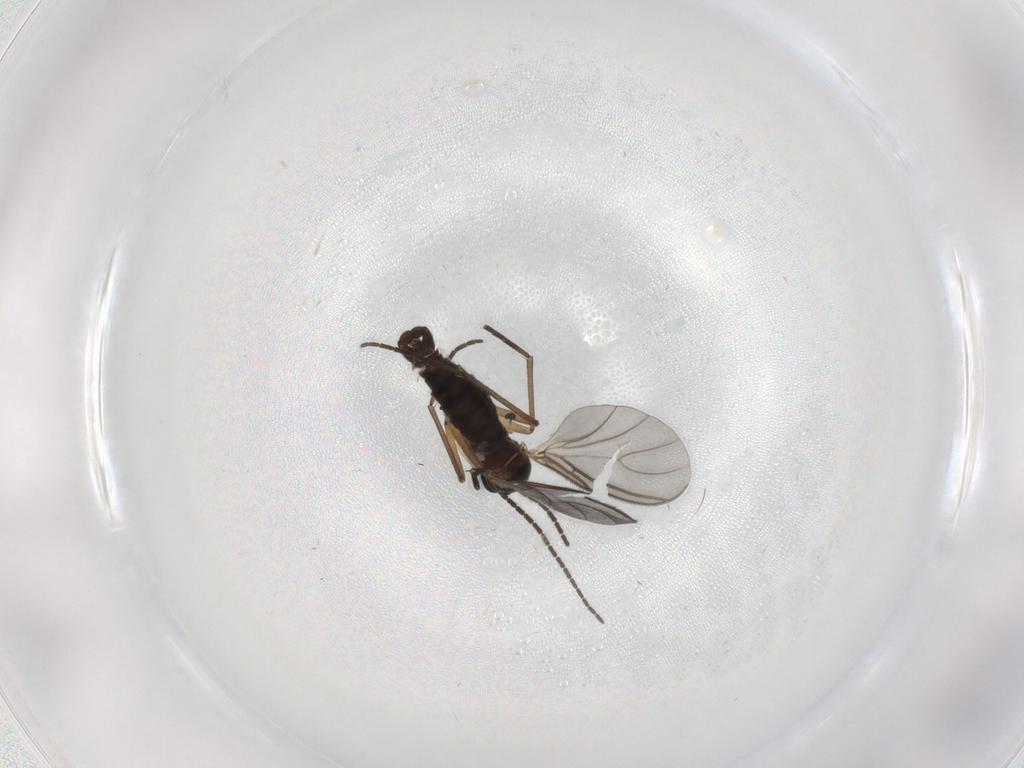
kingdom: Animalia
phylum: Arthropoda
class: Insecta
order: Diptera
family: Sciaridae
